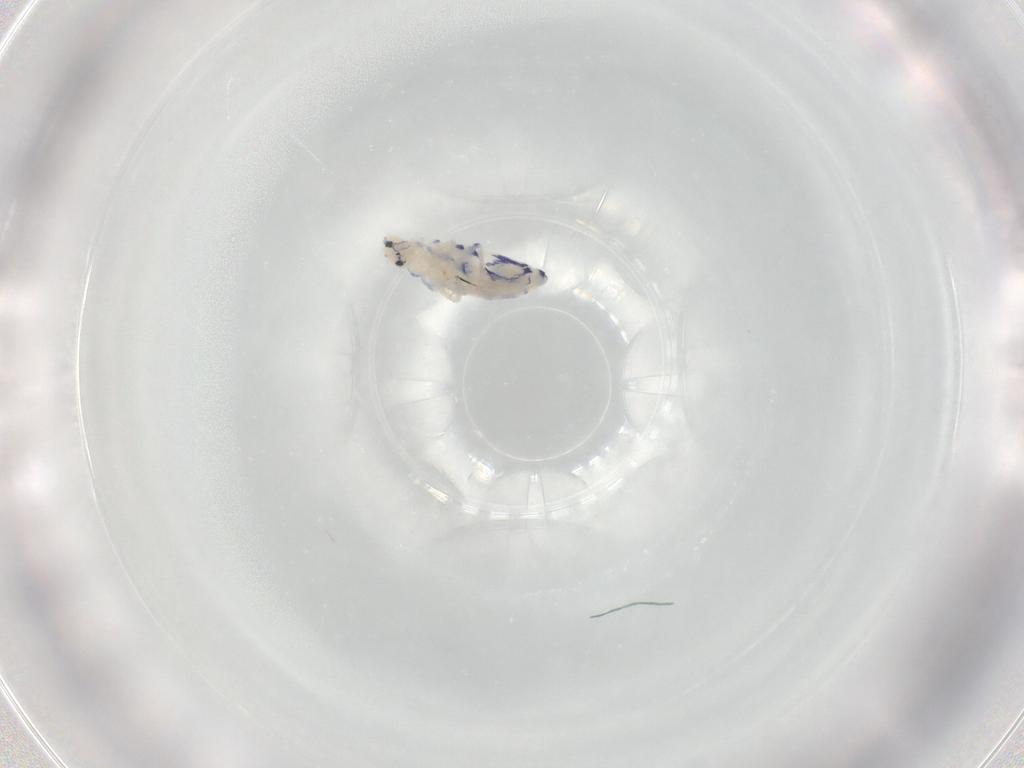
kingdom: Animalia
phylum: Arthropoda
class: Collembola
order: Entomobryomorpha
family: Entomobryidae
